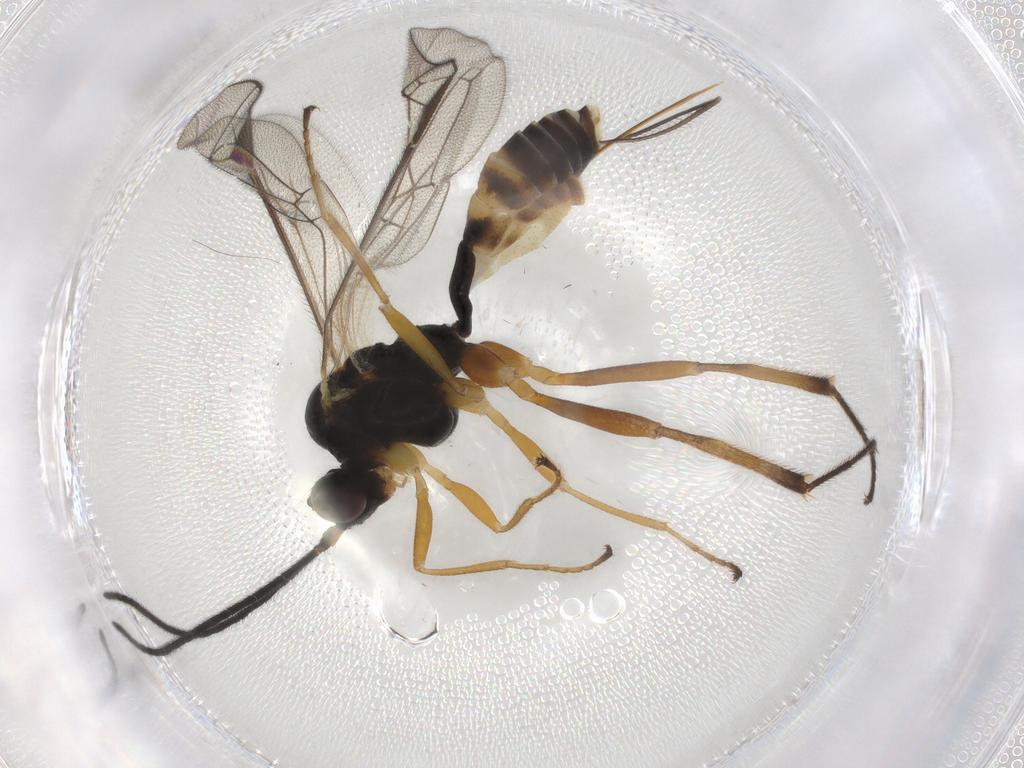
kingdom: Animalia
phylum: Arthropoda
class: Insecta
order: Hymenoptera
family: Ichneumonidae
